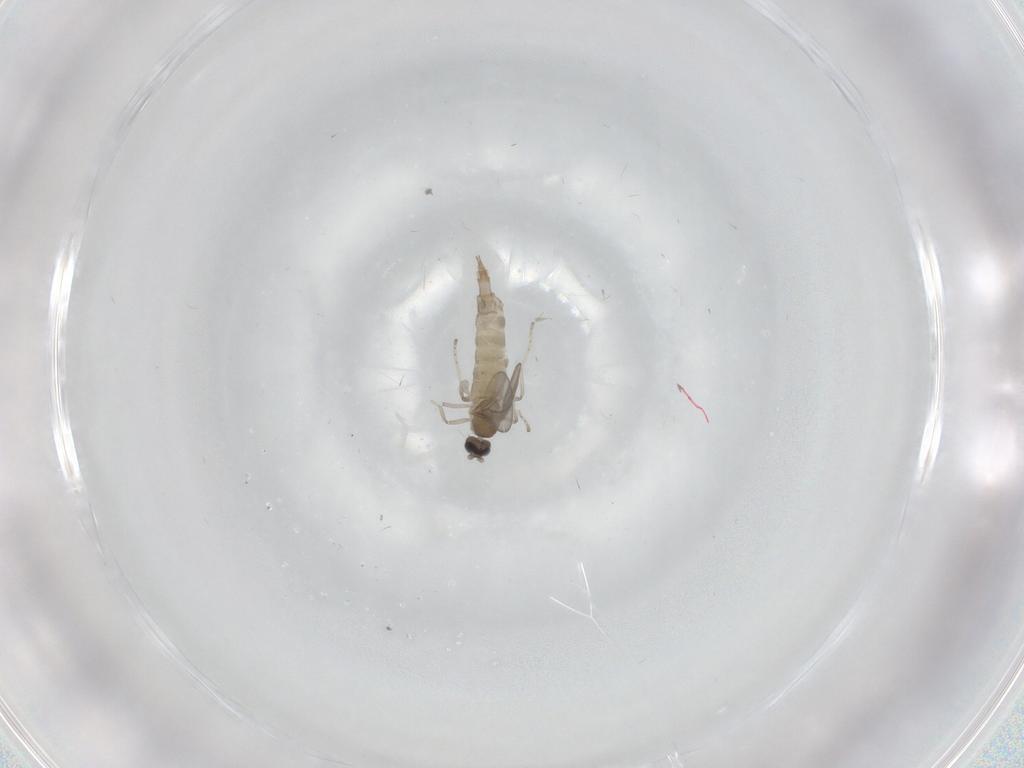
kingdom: Animalia
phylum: Arthropoda
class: Insecta
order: Diptera
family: Cecidomyiidae
